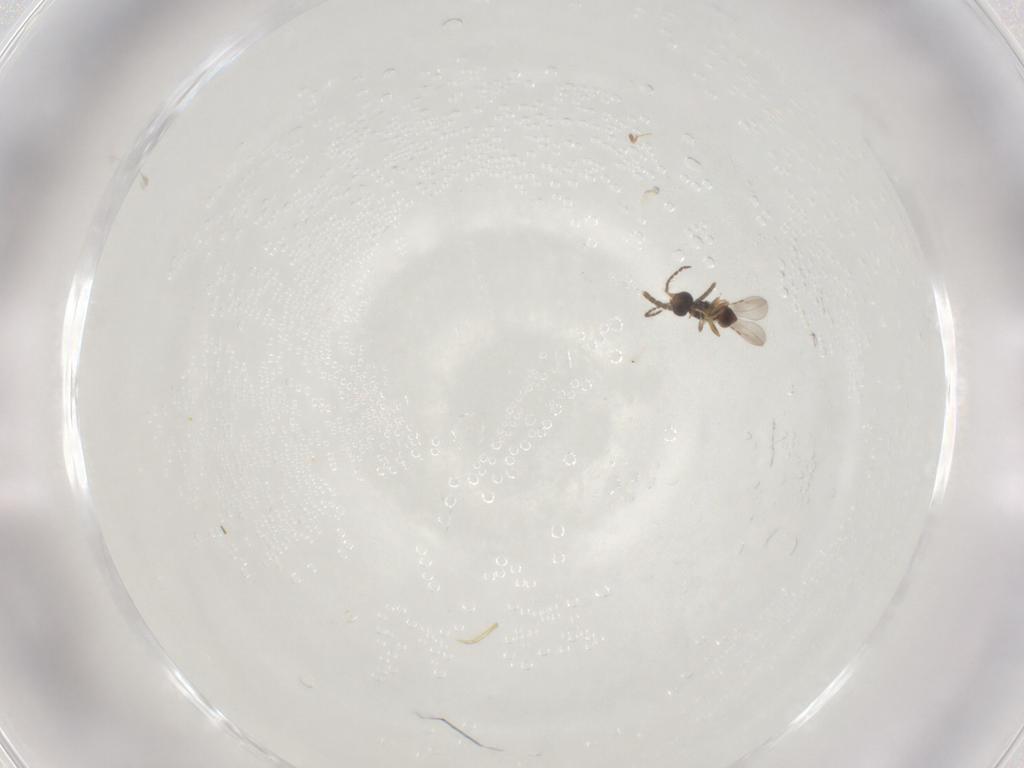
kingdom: Animalia
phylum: Arthropoda
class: Insecta
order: Diptera
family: Sciaridae
